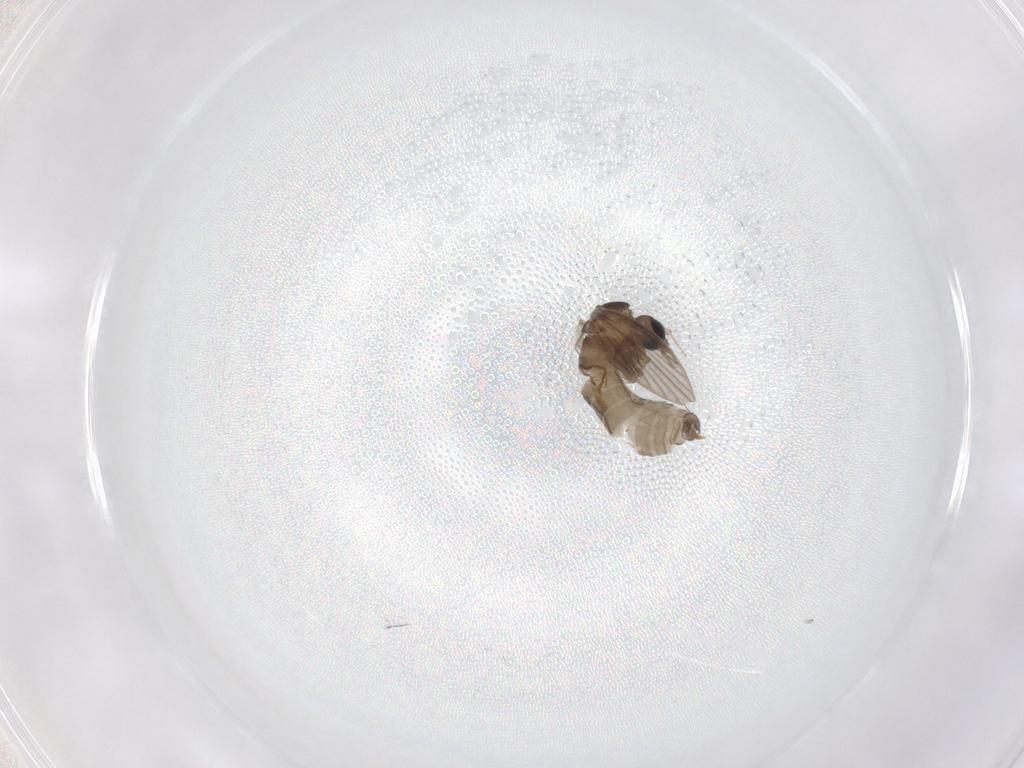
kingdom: Animalia
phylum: Arthropoda
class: Insecta
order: Diptera
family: Psychodidae
